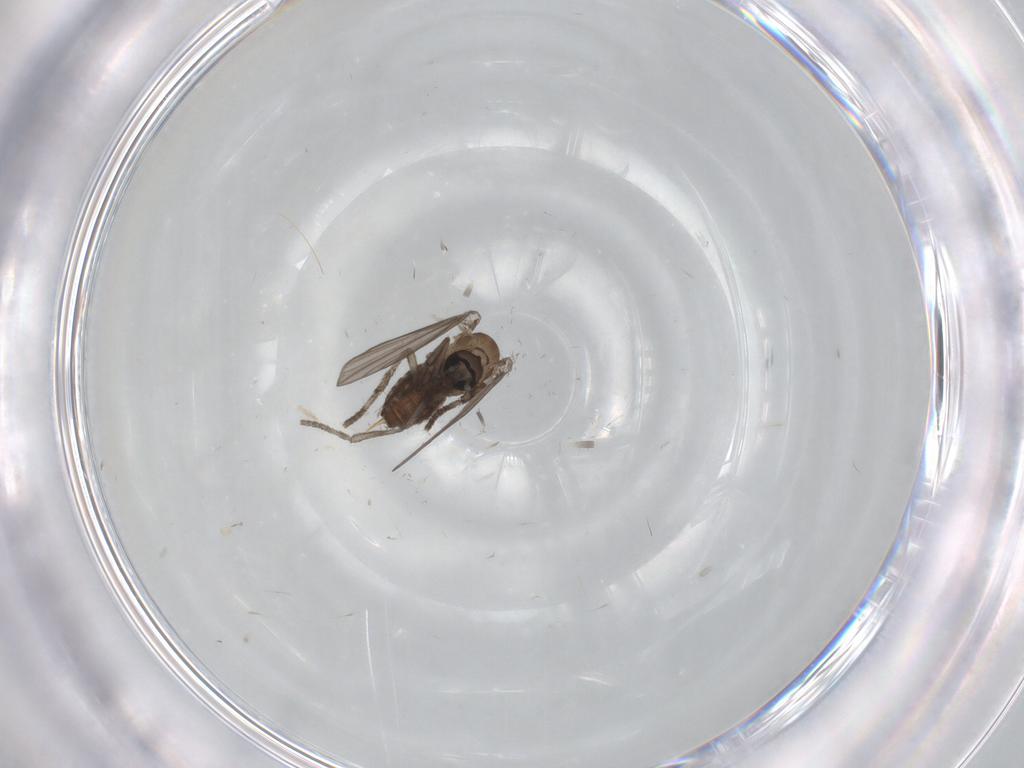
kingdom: Animalia
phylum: Arthropoda
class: Insecta
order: Diptera
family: Psychodidae
